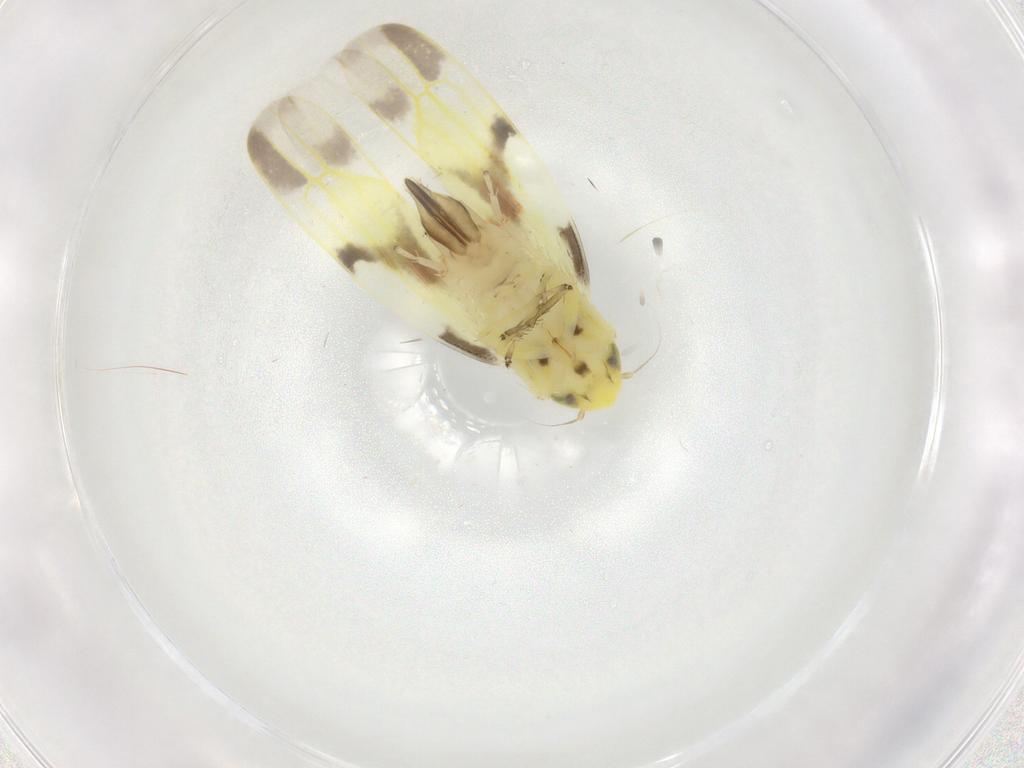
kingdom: Animalia
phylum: Arthropoda
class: Insecta
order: Hemiptera
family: Cicadellidae
